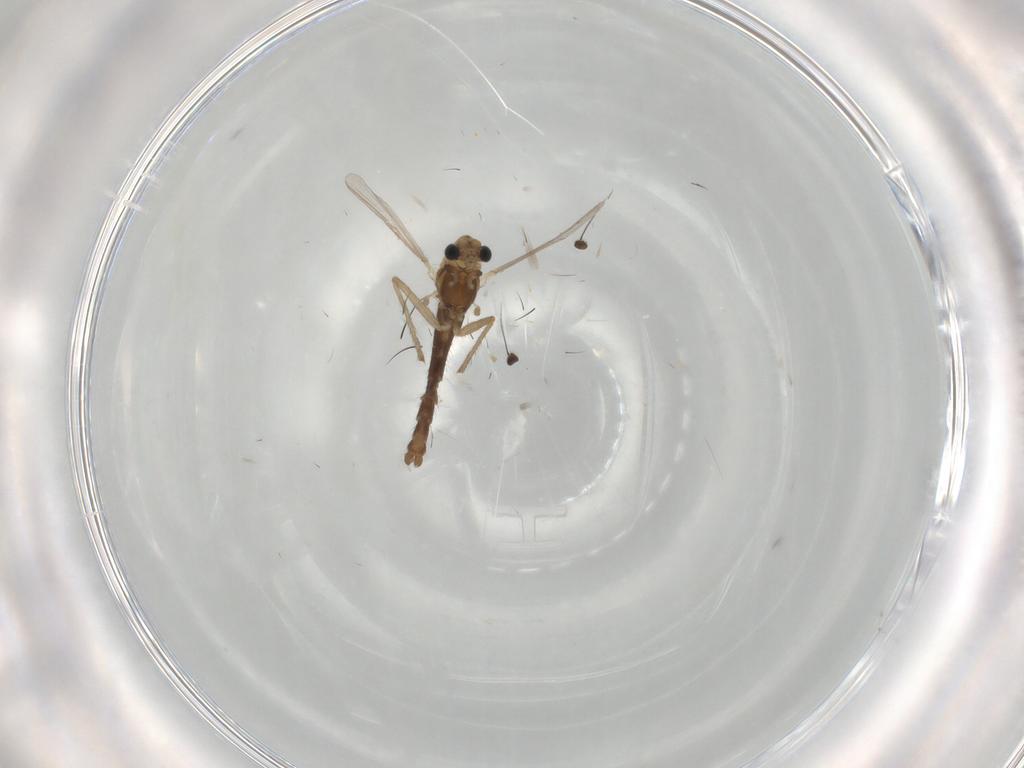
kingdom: Animalia
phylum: Arthropoda
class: Insecta
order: Diptera
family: Chironomidae
